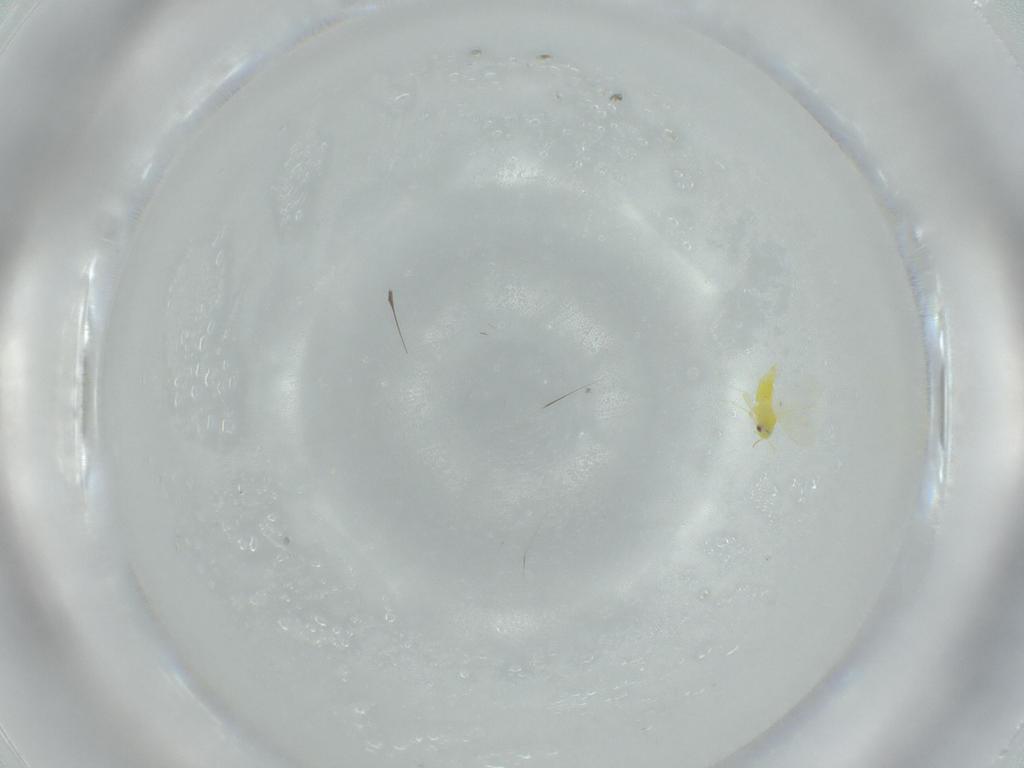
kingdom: Animalia
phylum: Arthropoda
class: Insecta
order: Hemiptera
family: Aleyrodidae
